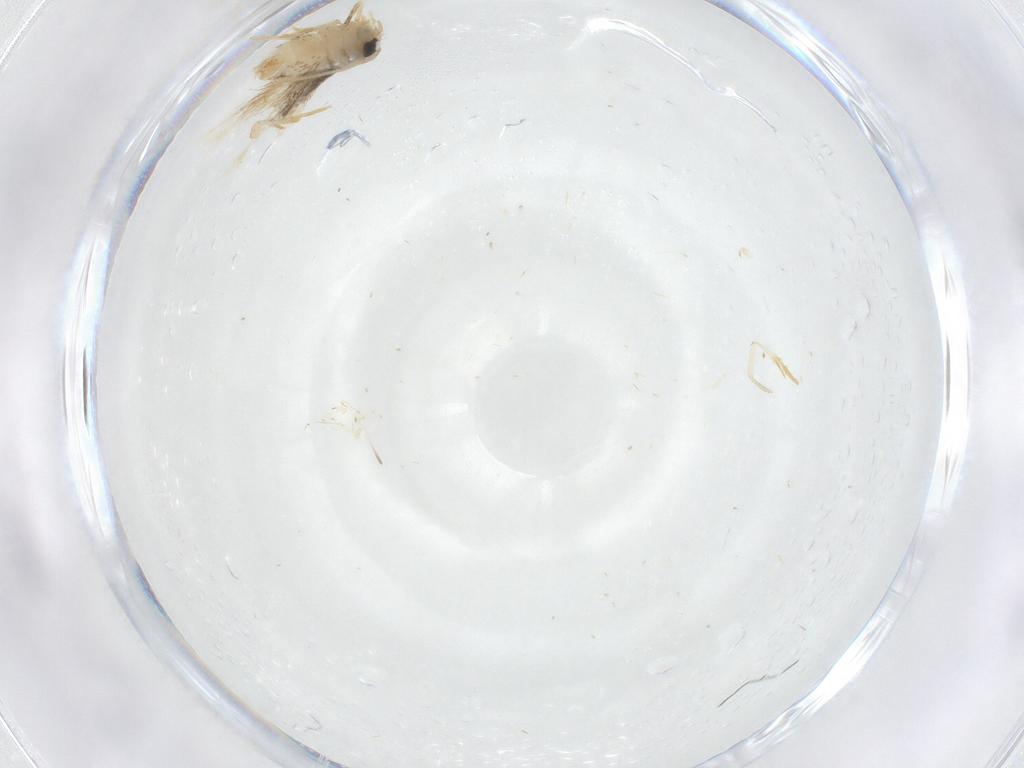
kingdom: Animalia
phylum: Arthropoda
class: Insecta
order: Lepidoptera
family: Nepticulidae
